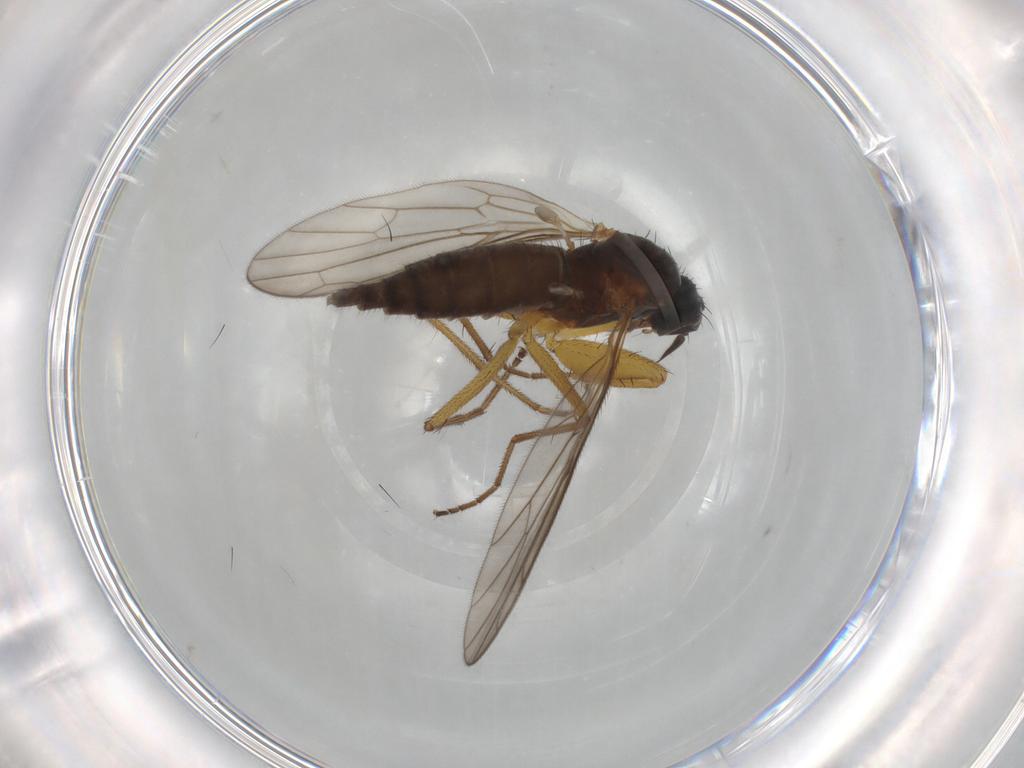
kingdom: Animalia
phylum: Arthropoda
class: Insecta
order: Diptera
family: Chironomidae
